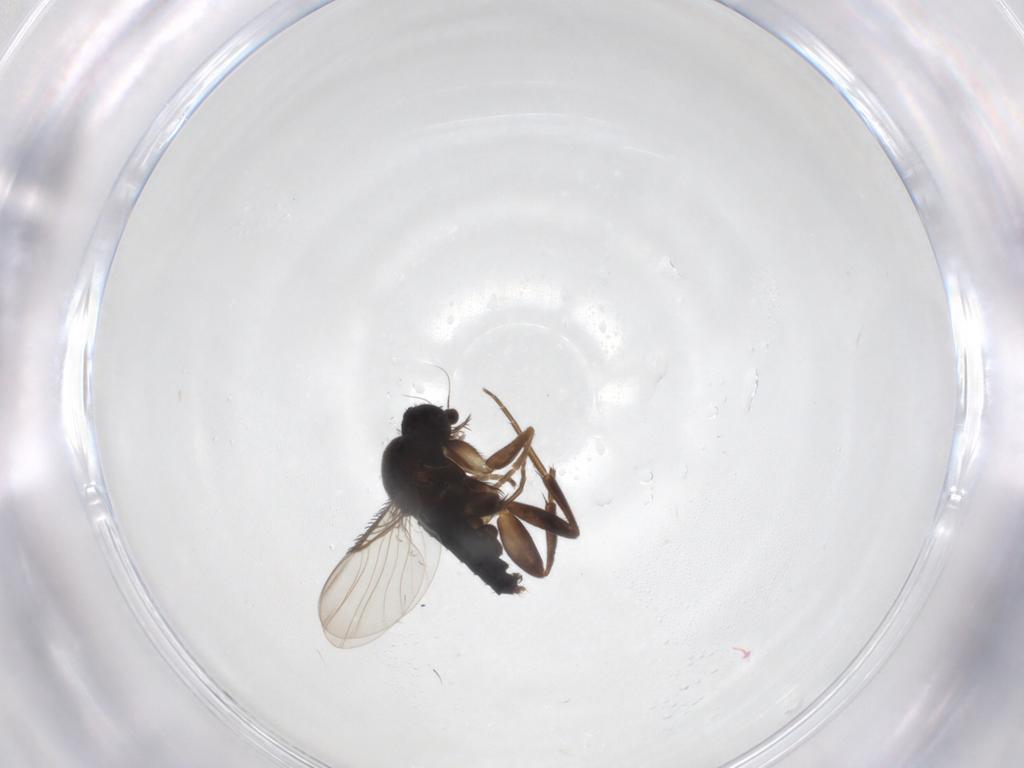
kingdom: Animalia
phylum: Arthropoda
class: Insecta
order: Diptera
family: Phoridae
